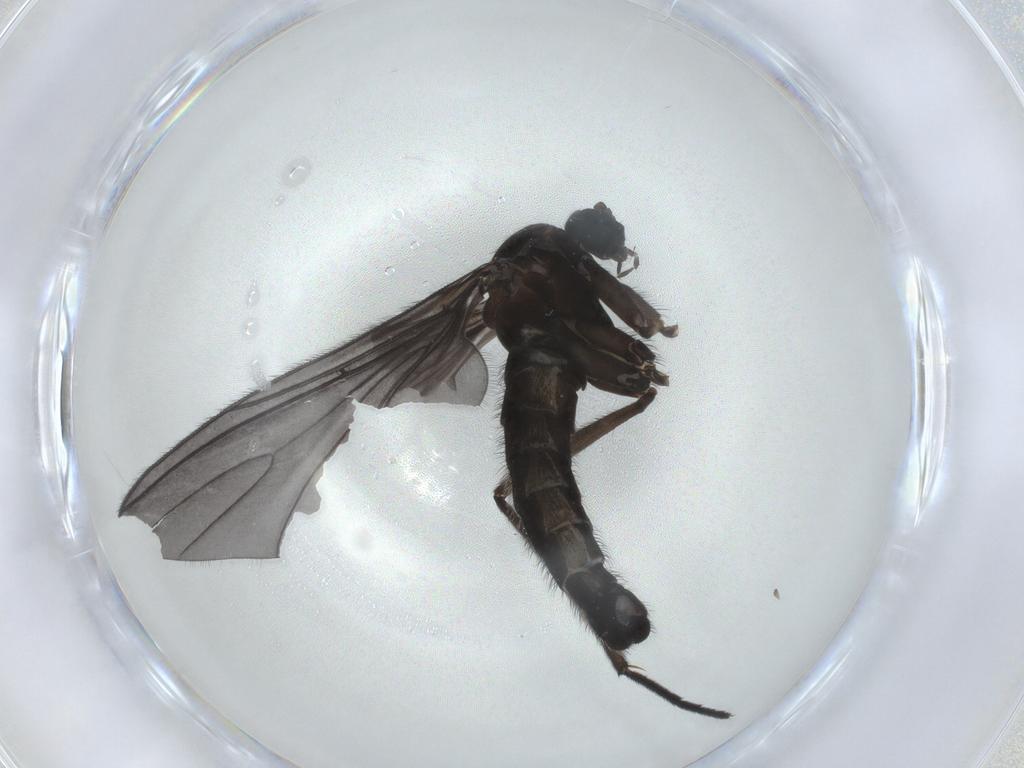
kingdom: Animalia
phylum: Arthropoda
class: Insecta
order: Diptera
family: Sciaridae
